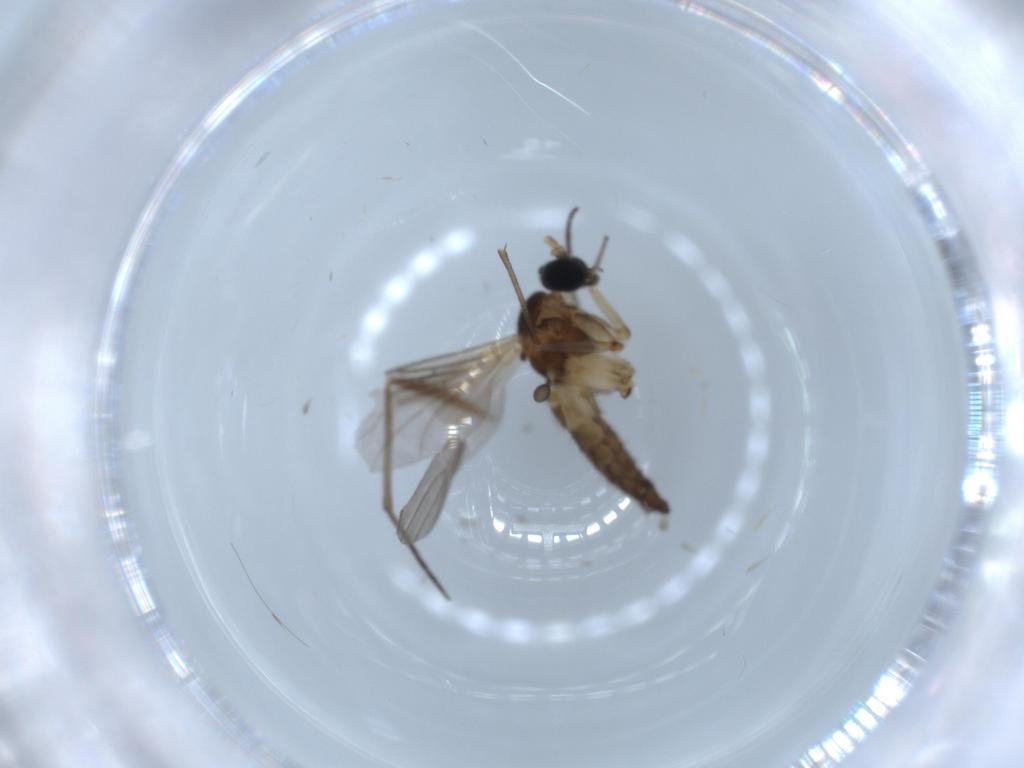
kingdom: Animalia
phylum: Arthropoda
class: Insecta
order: Diptera
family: Sciaridae
